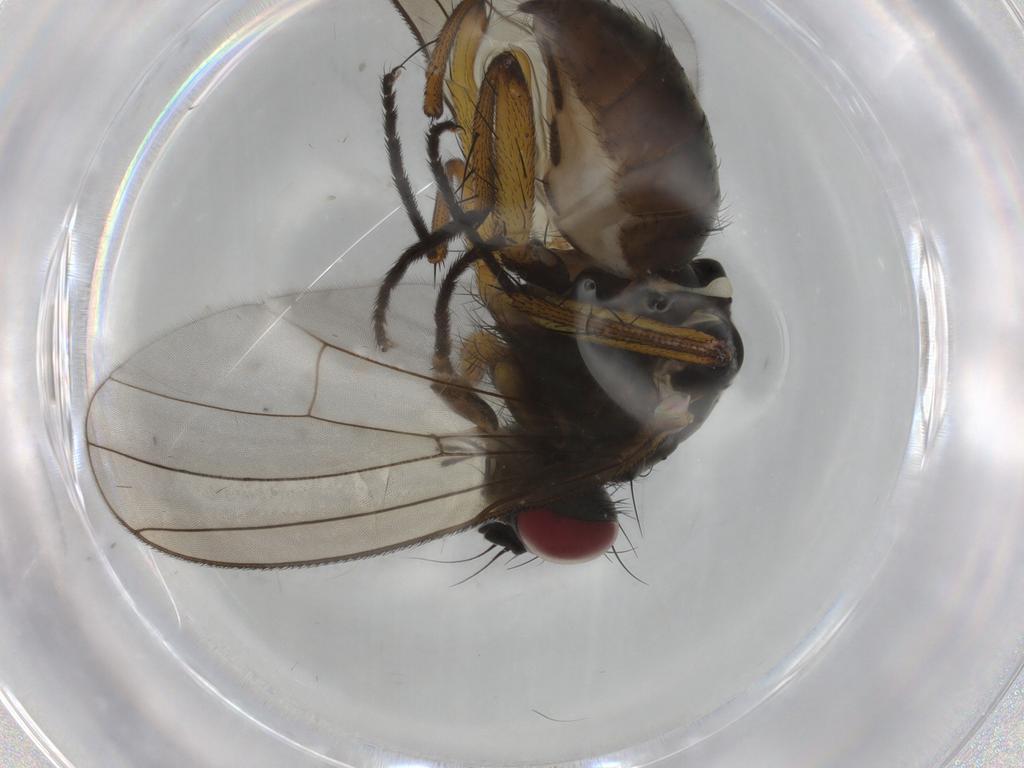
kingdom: Animalia
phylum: Arthropoda
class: Insecta
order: Diptera
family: Muscidae
